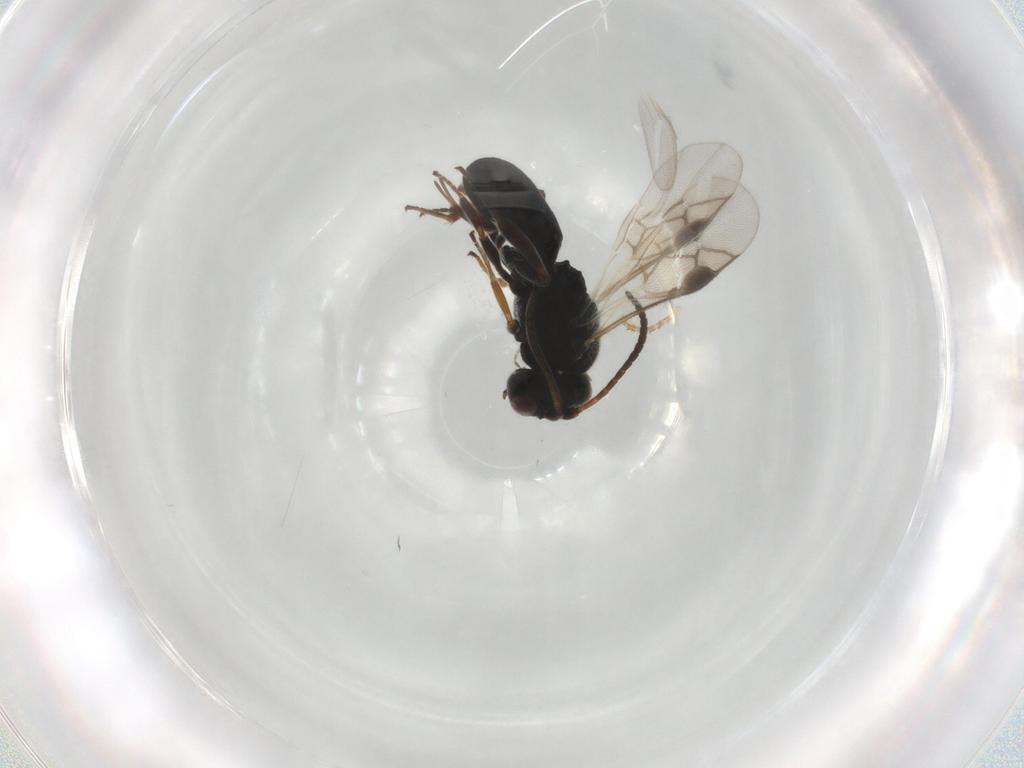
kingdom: Animalia
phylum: Arthropoda
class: Insecta
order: Hymenoptera
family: Braconidae
